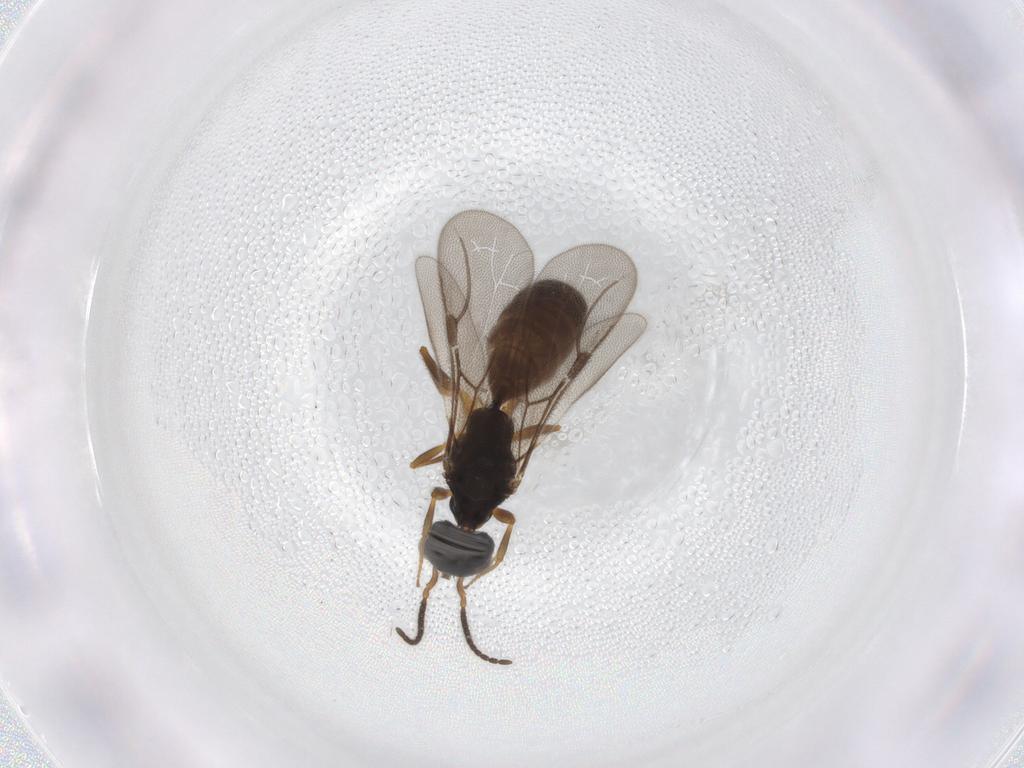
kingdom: Animalia
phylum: Arthropoda
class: Insecta
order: Hymenoptera
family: Bethylidae
